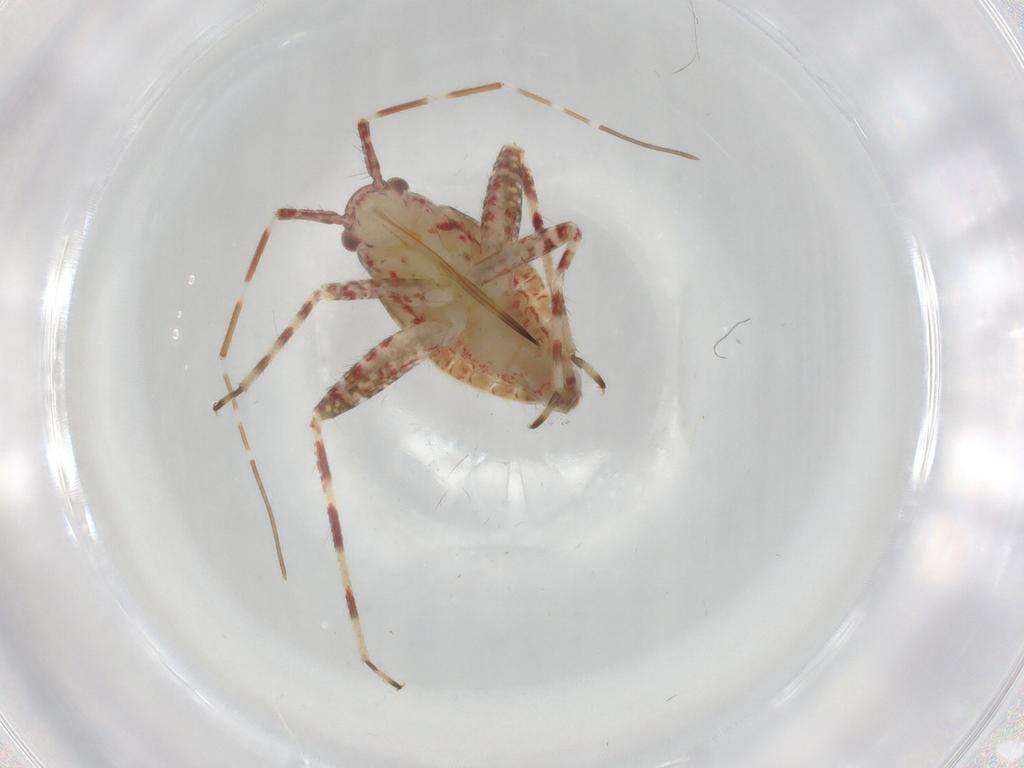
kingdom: Animalia
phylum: Arthropoda
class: Insecta
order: Hemiptera
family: Miridae
